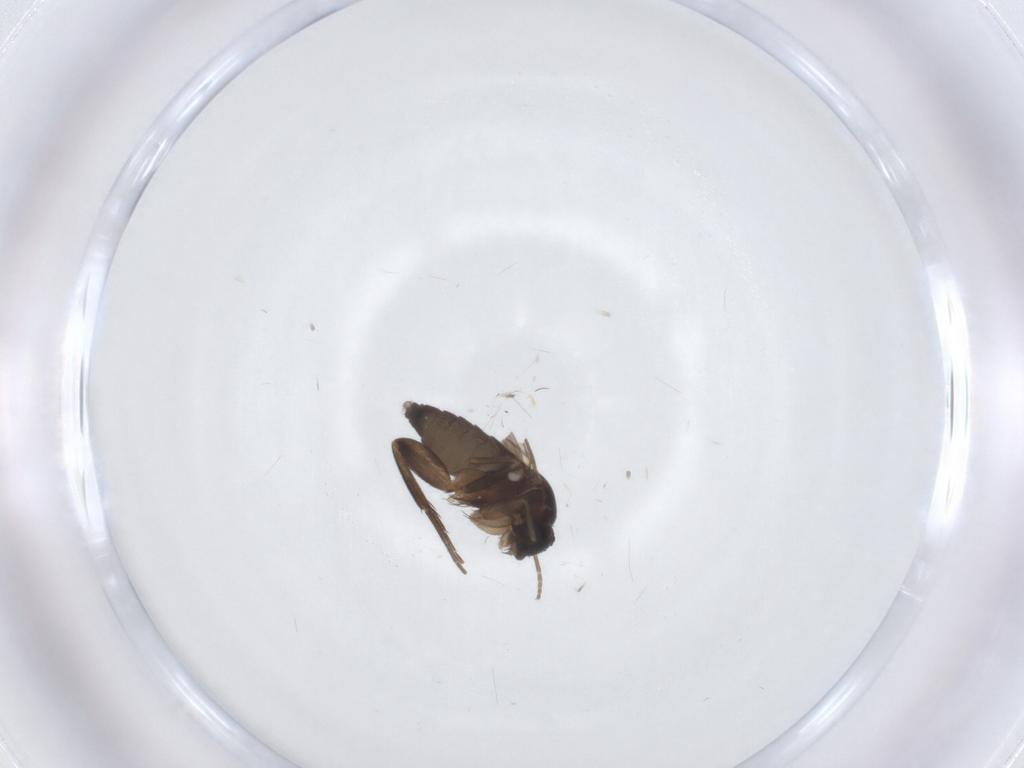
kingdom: Animalia
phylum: Arthropoda
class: Insecta
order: Diptera
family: Phoridae
